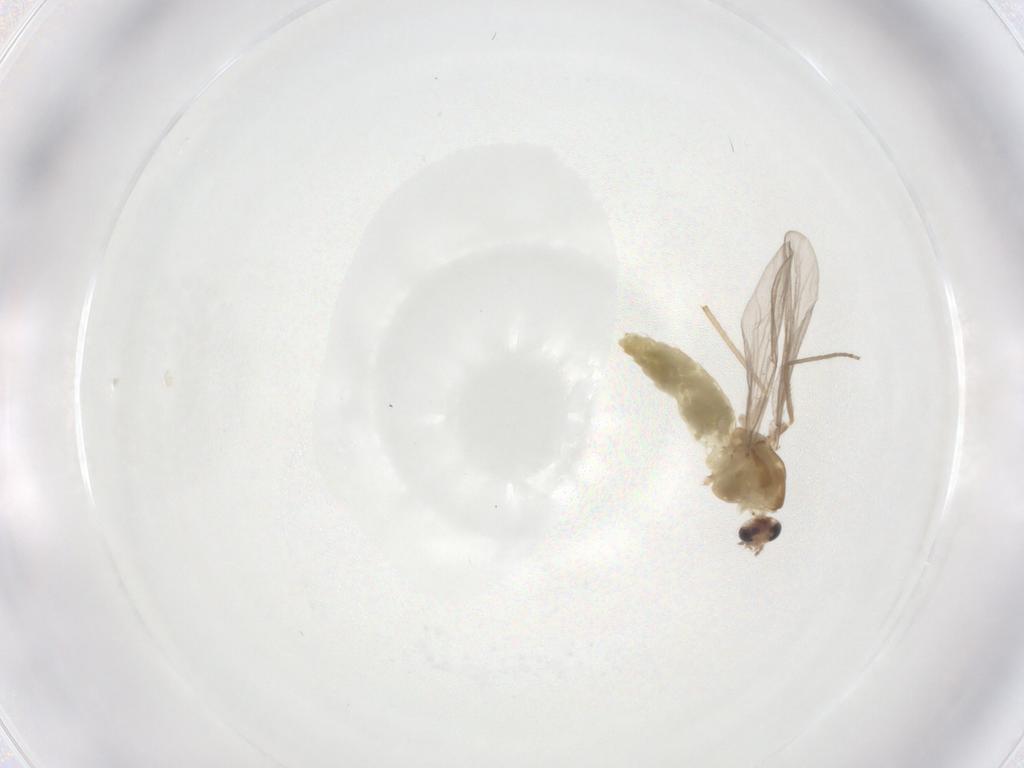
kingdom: Animalia
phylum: Arthropoda
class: Insecta
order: Diptera
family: Chironomidae
